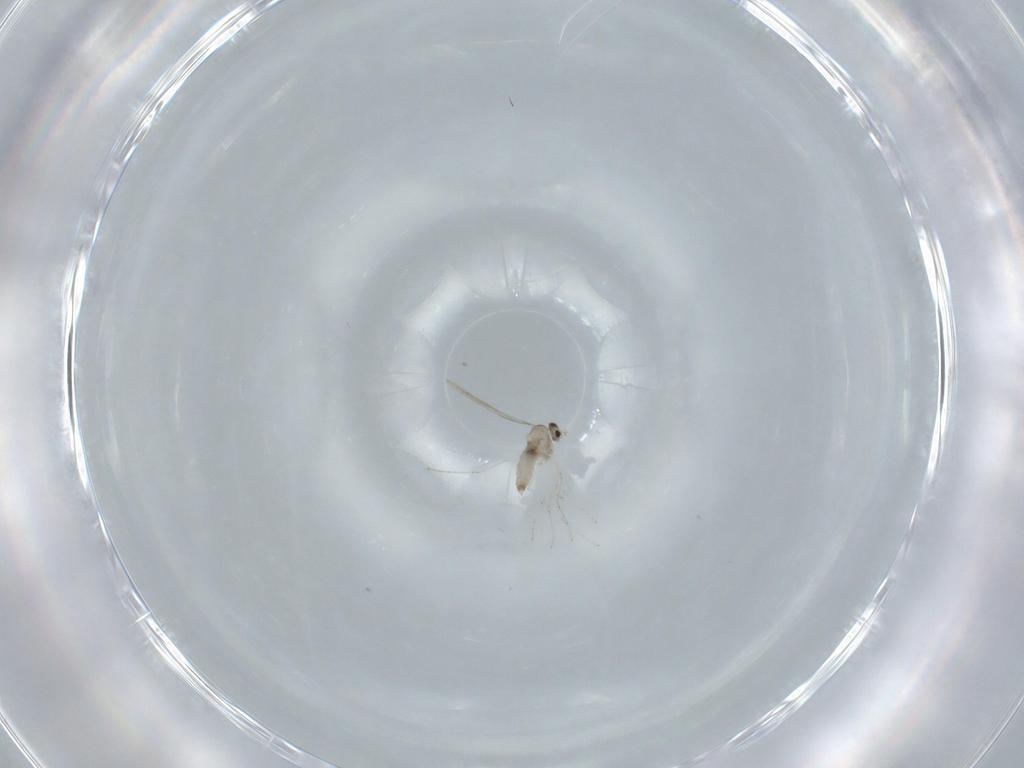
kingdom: Animalia
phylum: Arthropoda
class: Insecta
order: Diptera
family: Cecidomyiidae
